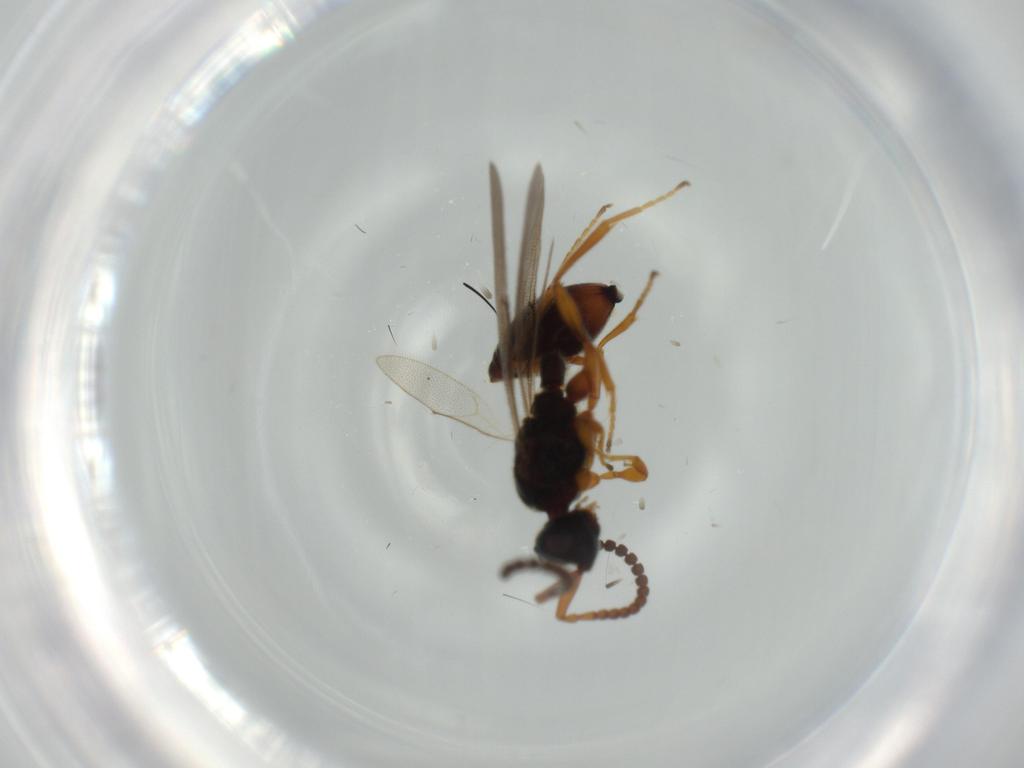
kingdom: Animalia
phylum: Arthropoda
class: Insecta
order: Hymenoptera
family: Ichneumonidae
